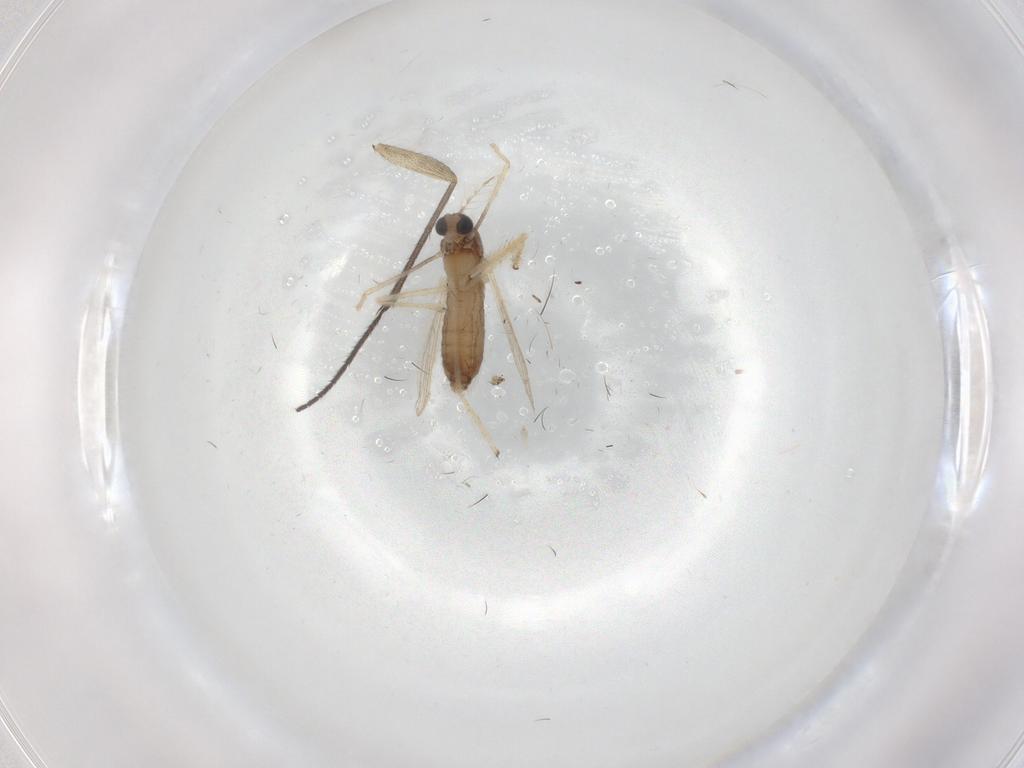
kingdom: Animalia
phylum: Arthropoda
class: Insecta
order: Diptera
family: Chironomidae
